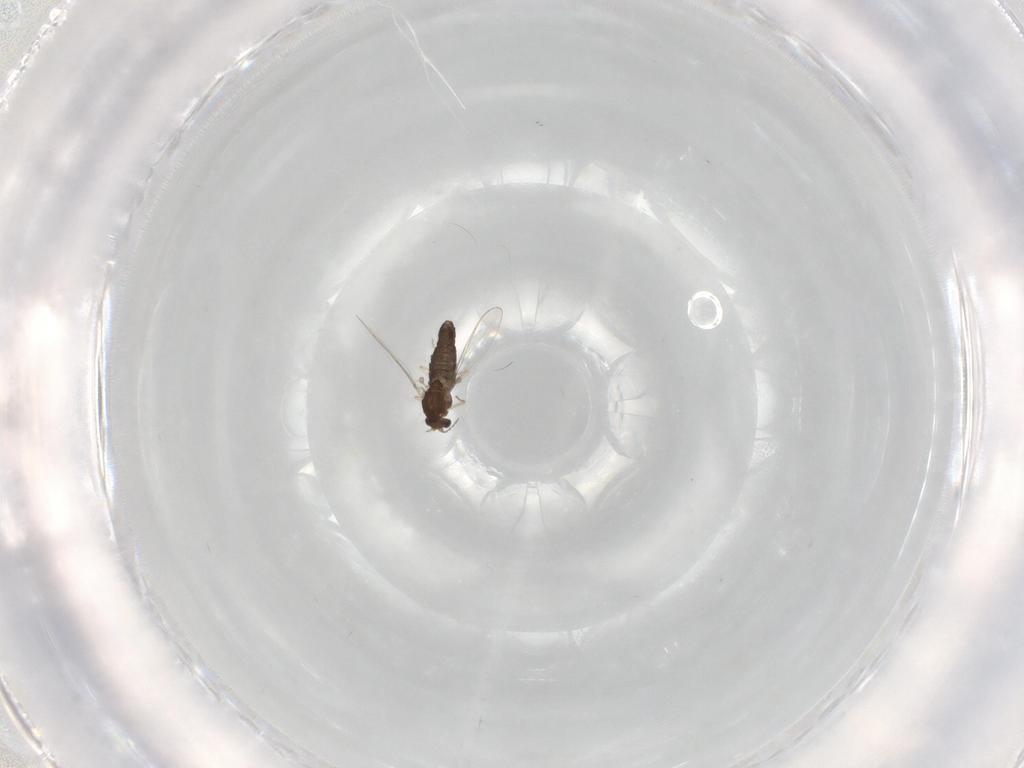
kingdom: Animalia
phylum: Arthropoda
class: Insecta
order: Diptera
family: Chironomidae
